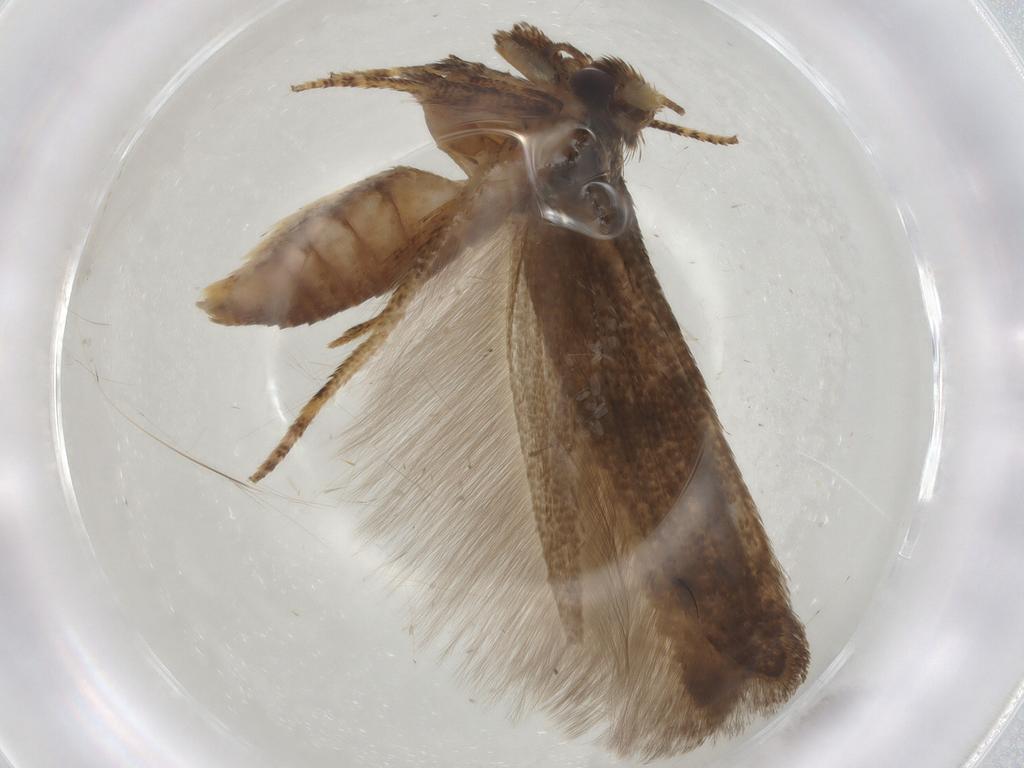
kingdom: Animalia
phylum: Arthropoda
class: Insecta
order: Lepidoptera
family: Blastobasidae
